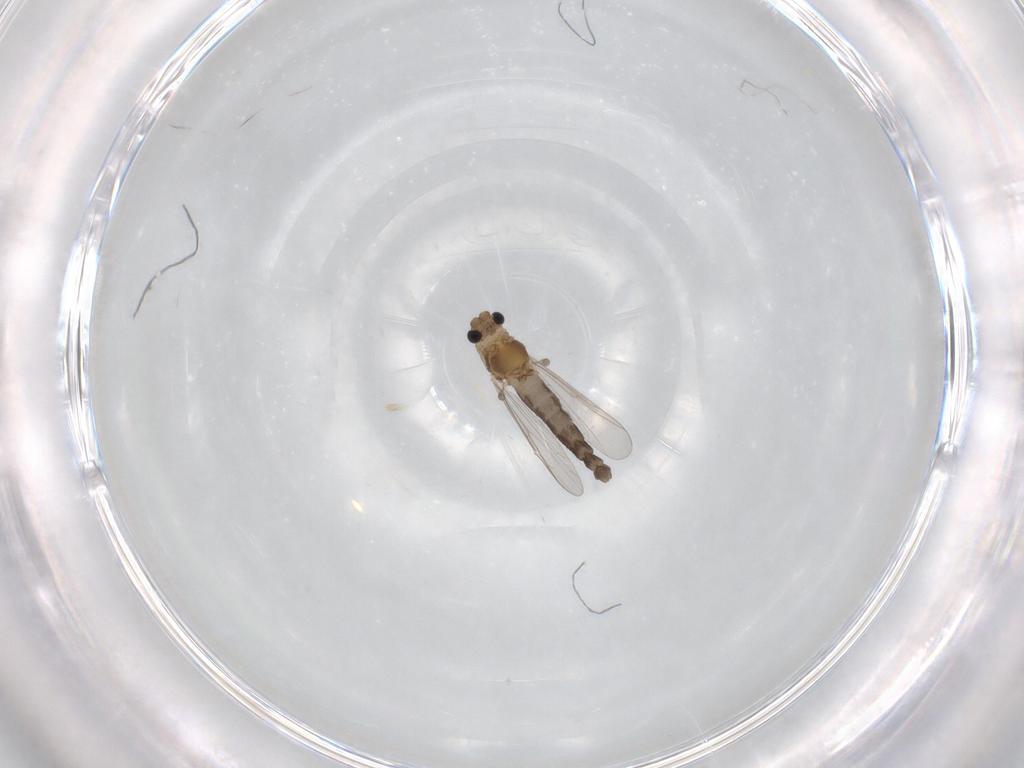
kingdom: Animalia
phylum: Arthropoda
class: Insecta
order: Diptera
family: Chironomidae
